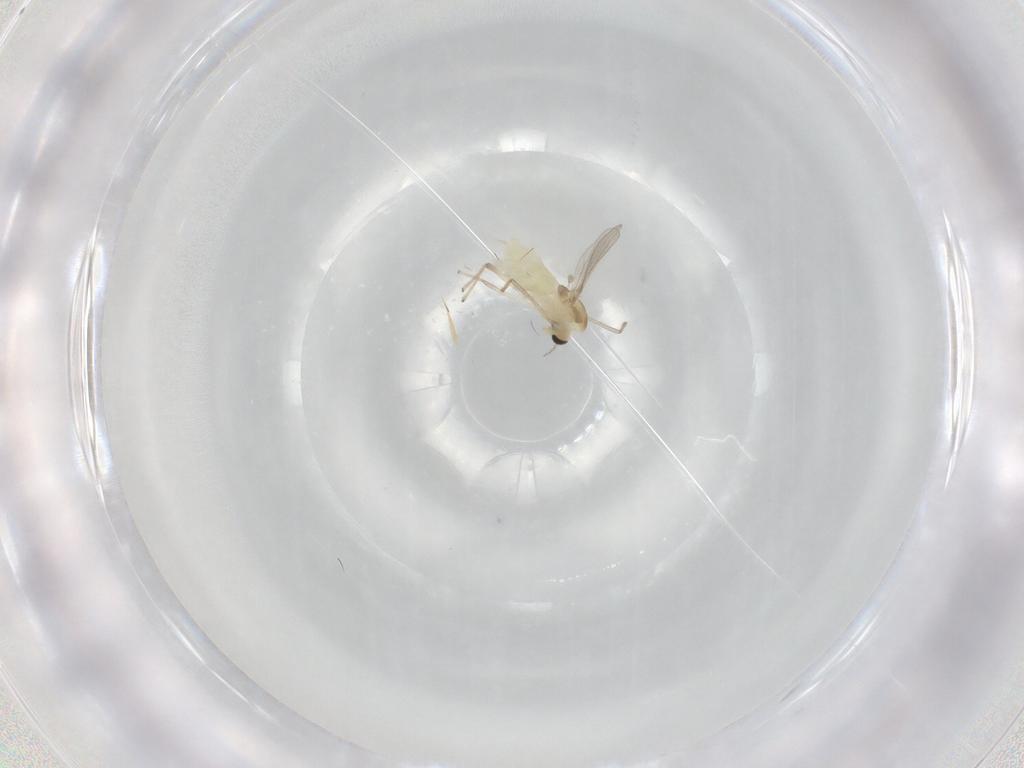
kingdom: Animalia
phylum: Arthropoda
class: Insecta
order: Diptera
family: Chironomidae
